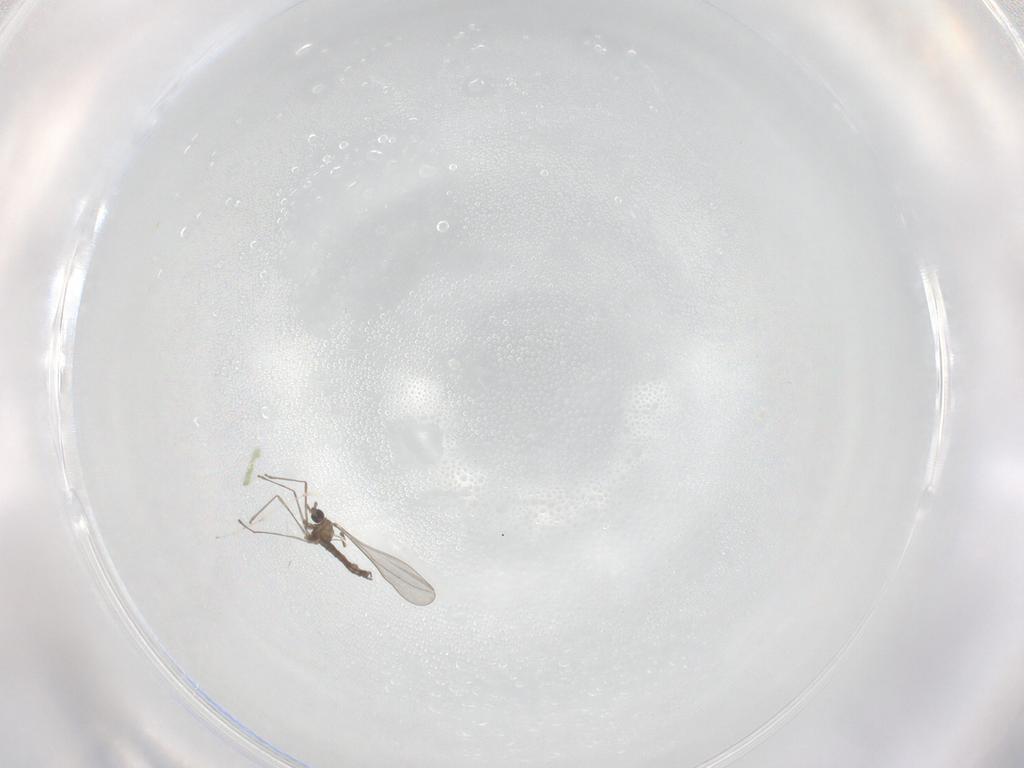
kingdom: Animalia
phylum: Arthropoda
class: Insecta
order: Diptera
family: Cecidomyiidae
